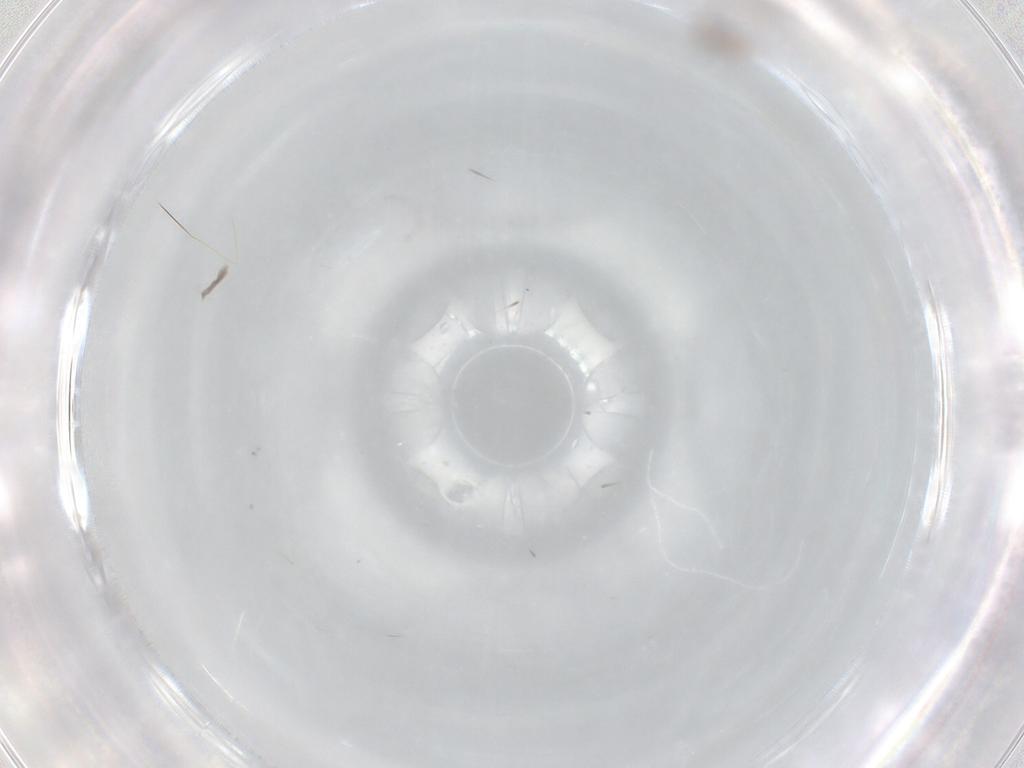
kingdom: Animalia
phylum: Arthropoda
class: Insecta
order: Diptera
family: Cecidomyiidae
